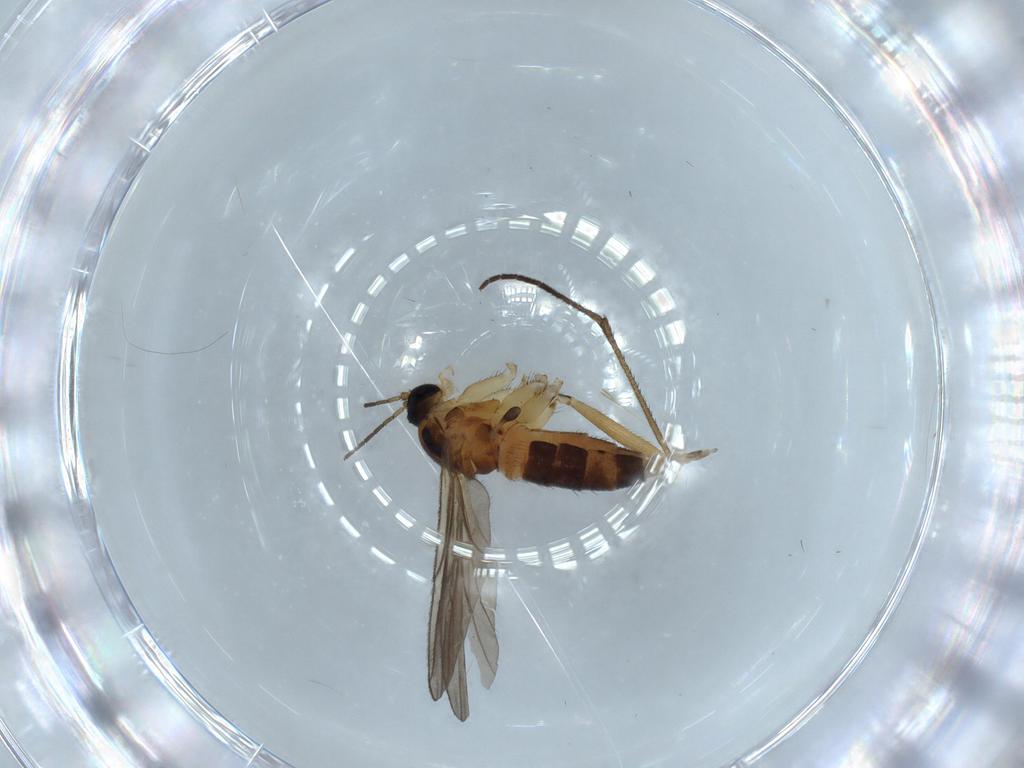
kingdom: Animalia
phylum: Arthropoda
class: Insecta
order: Diptera
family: Sciaridae
